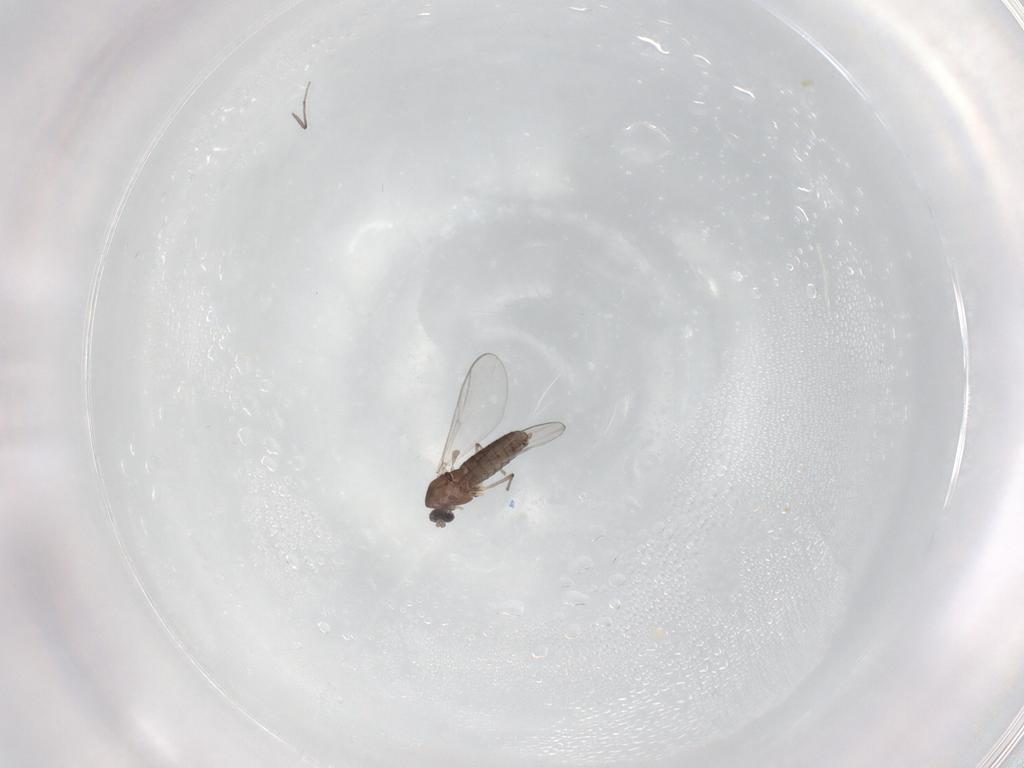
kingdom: Animalia
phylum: Arthropoda
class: Insecta
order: Diptera
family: Chironomidae
